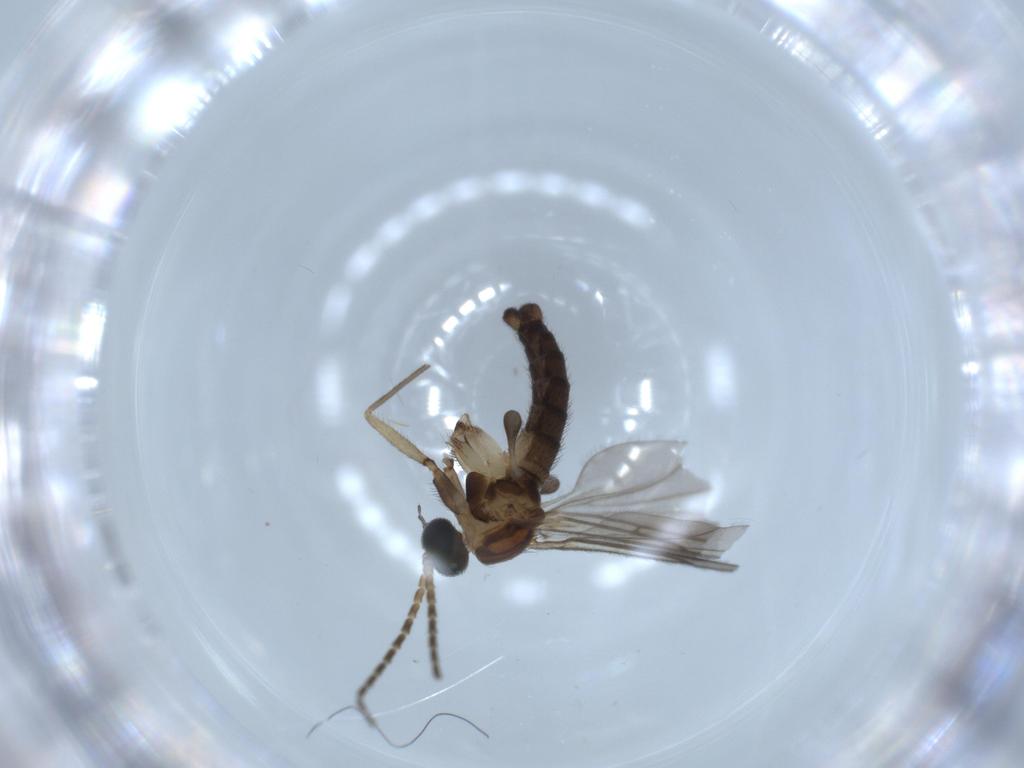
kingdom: Animalia
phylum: Arthropoda
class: Insecta
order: Diptera
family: Sciaridae
